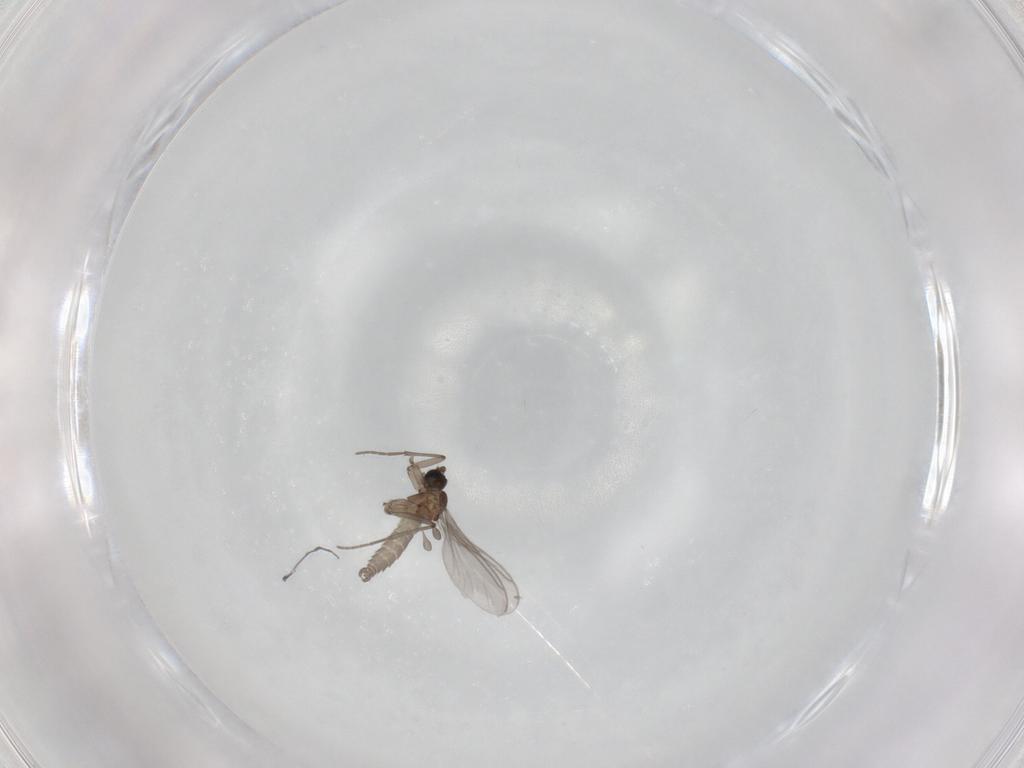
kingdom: Animalia
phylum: Arthropoda
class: Insecta
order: Diptera
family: Sciaridae
